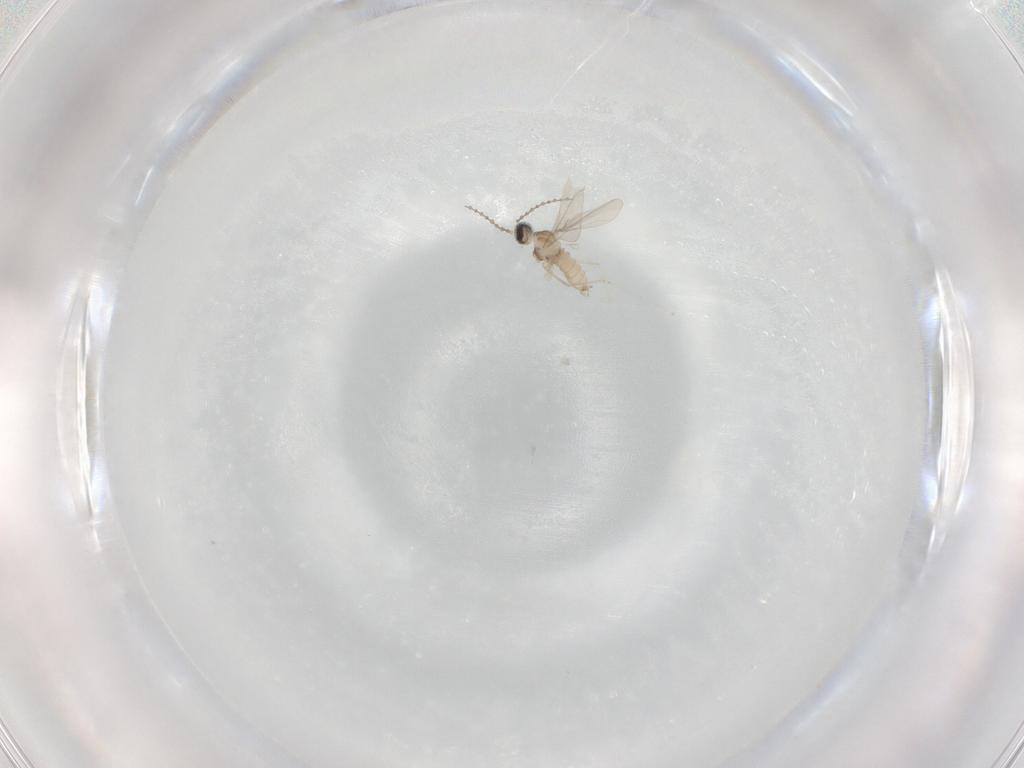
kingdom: Animalia
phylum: Arthropoda
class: Insecta
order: Diptera
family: Cecidomyiidae
